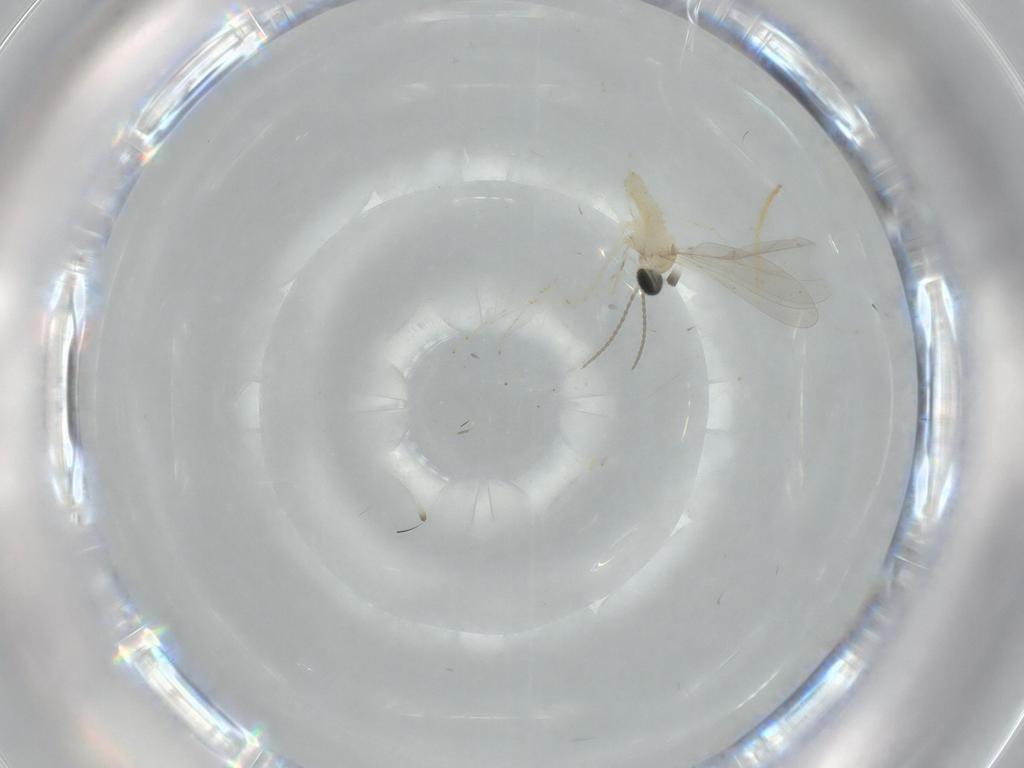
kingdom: Animalia
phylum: Arthropoda
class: Insecta
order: Diptera
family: Cecidomyiidae
